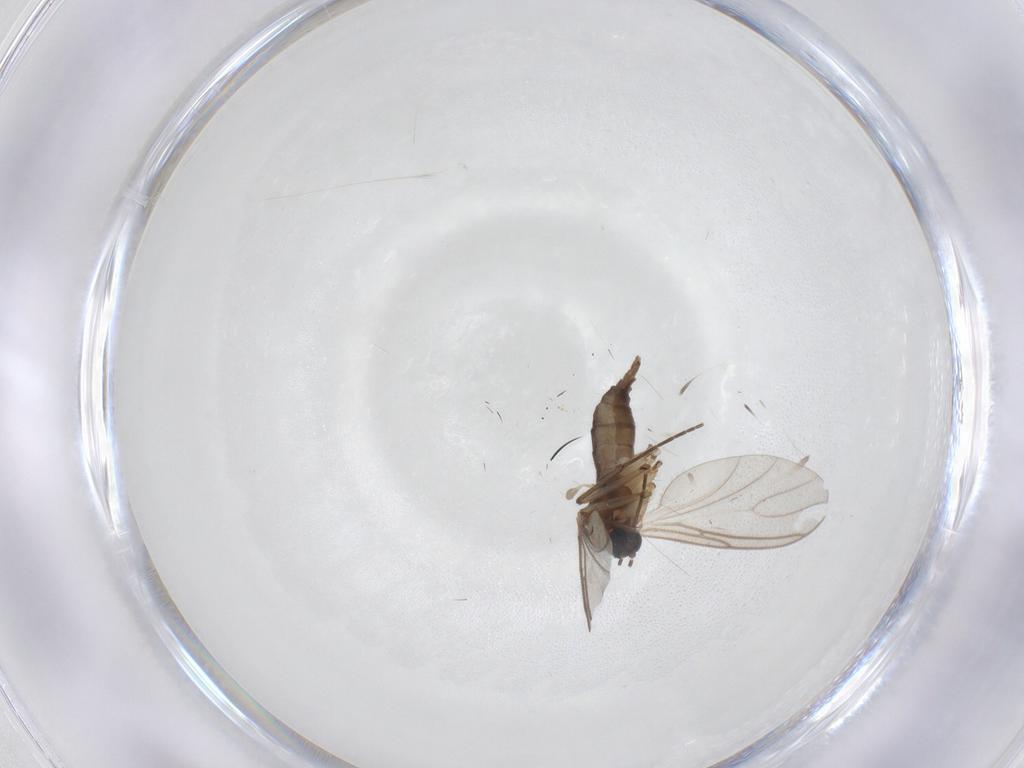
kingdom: Animalia
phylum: Arthropoda
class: Insecta
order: Diptera
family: Sciaridae
